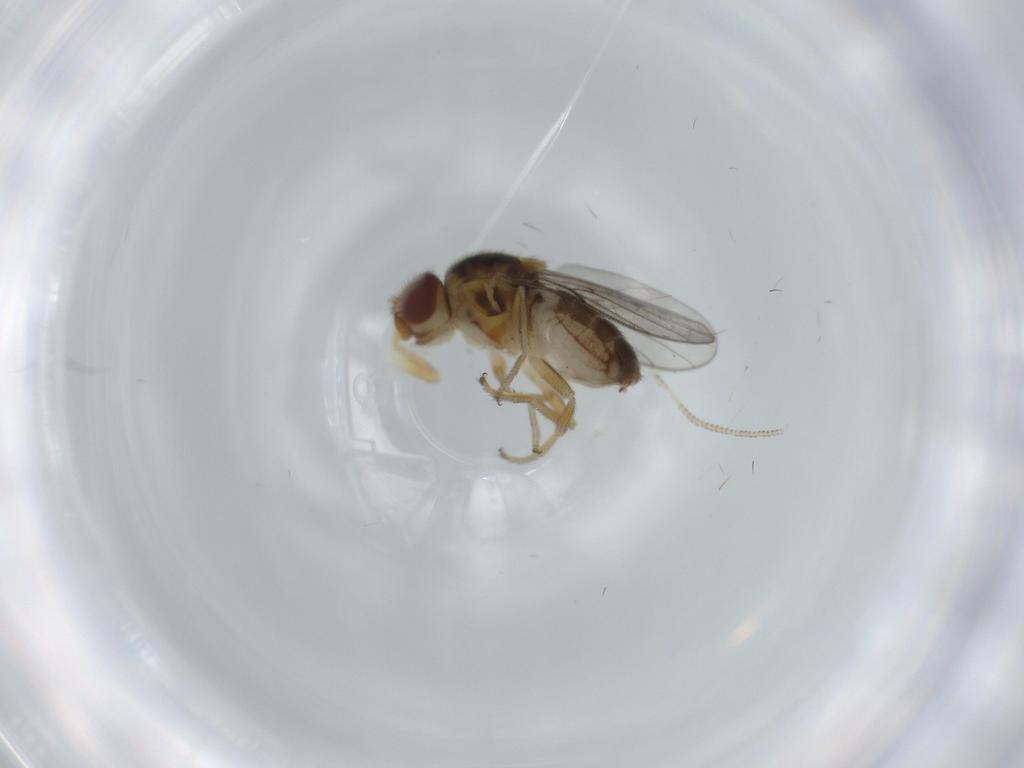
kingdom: Animalia
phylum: Arthropoda
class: Insecta
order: Diptera
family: Chloropidae
